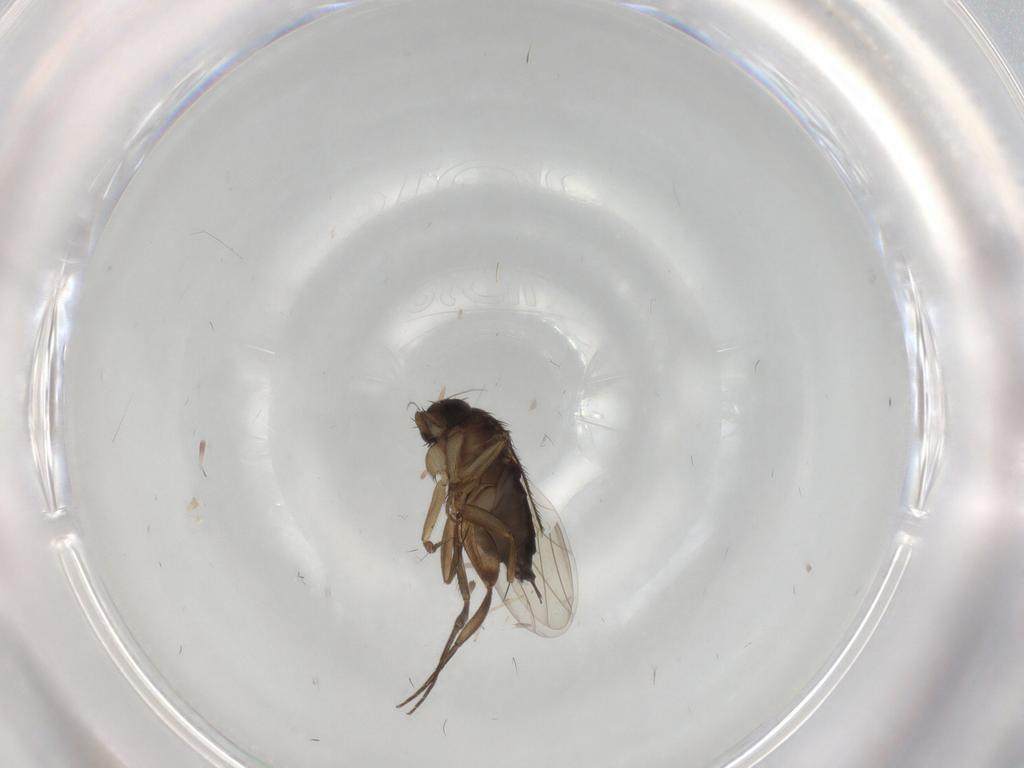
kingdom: Animalia
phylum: Arthropoda
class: Insecta
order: Diptera
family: Phoridae
